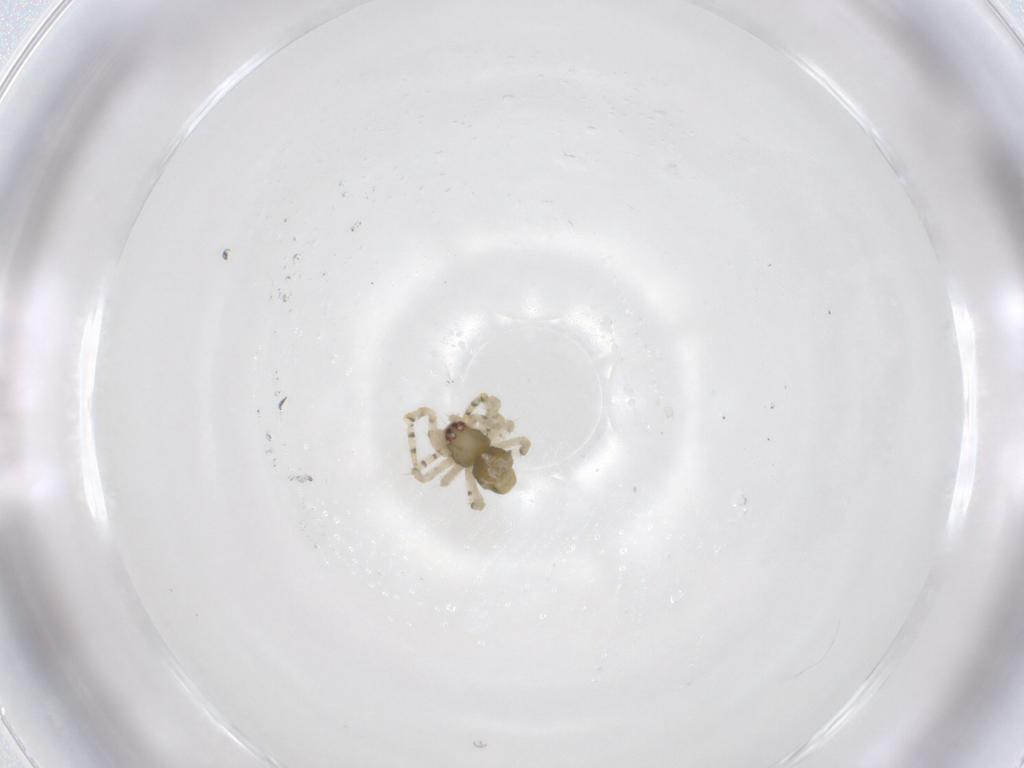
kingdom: Animalia
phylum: Arthropoda
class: Arachnida
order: Araneae
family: Theridiidae
